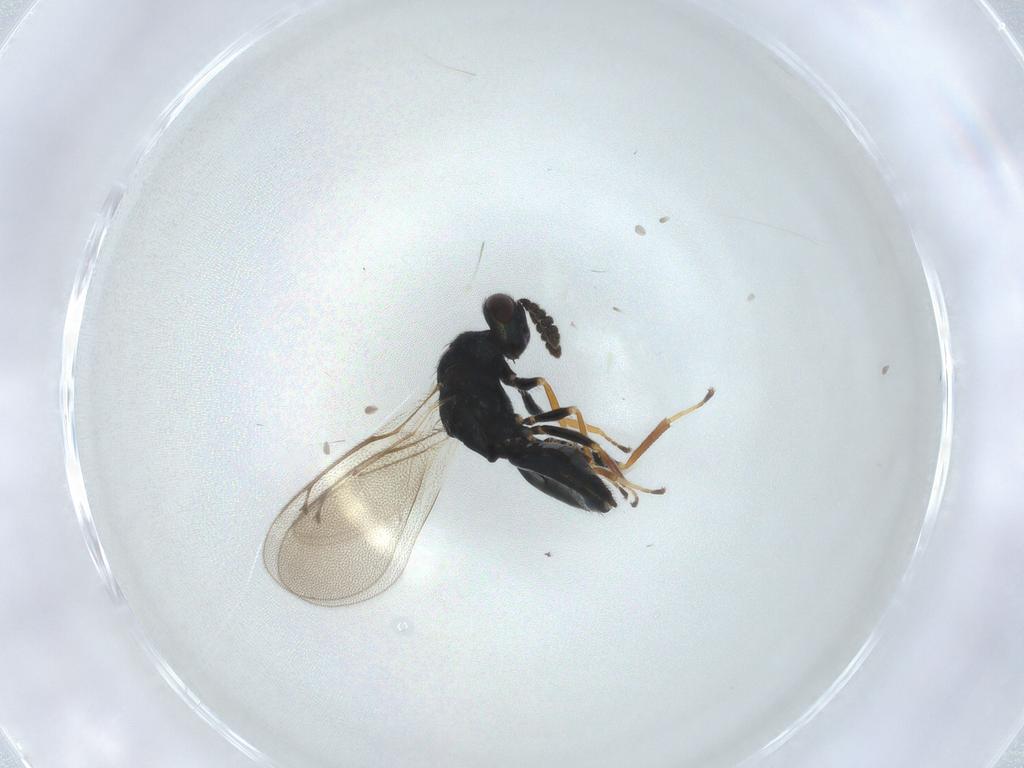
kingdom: Animalia
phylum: Arthropoda
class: Insecta
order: Hymenoptera
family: Eulophidae
